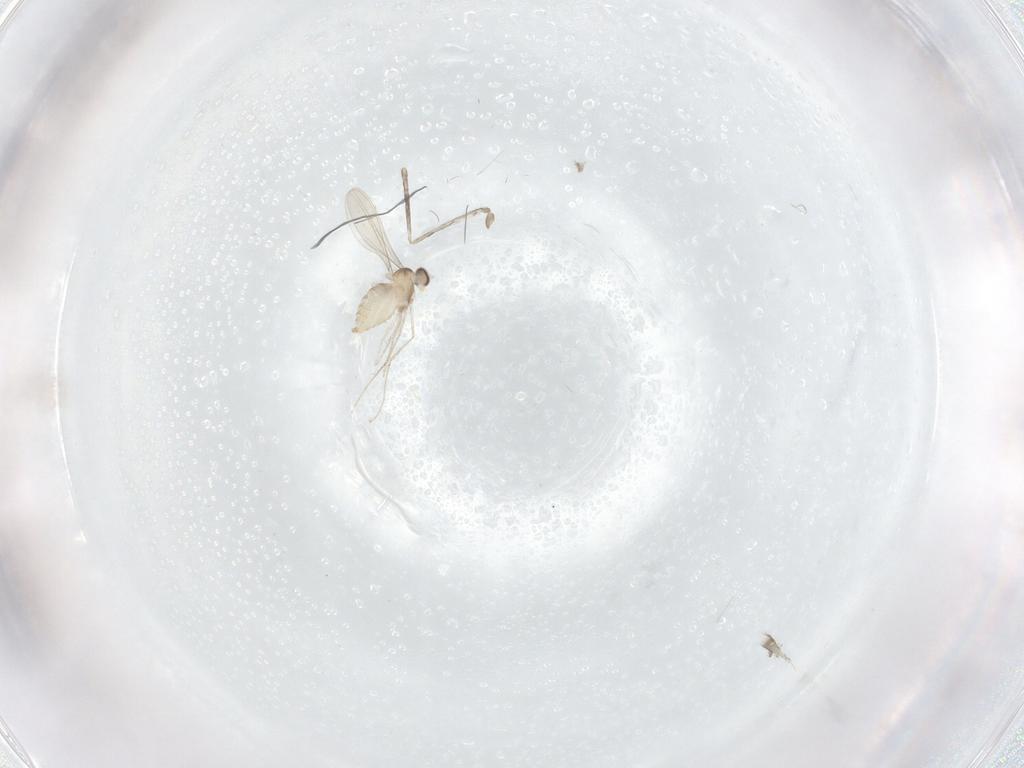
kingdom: Animalia
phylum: Arthropoda
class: Insecta
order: Diptera
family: Cecidomyiidae
